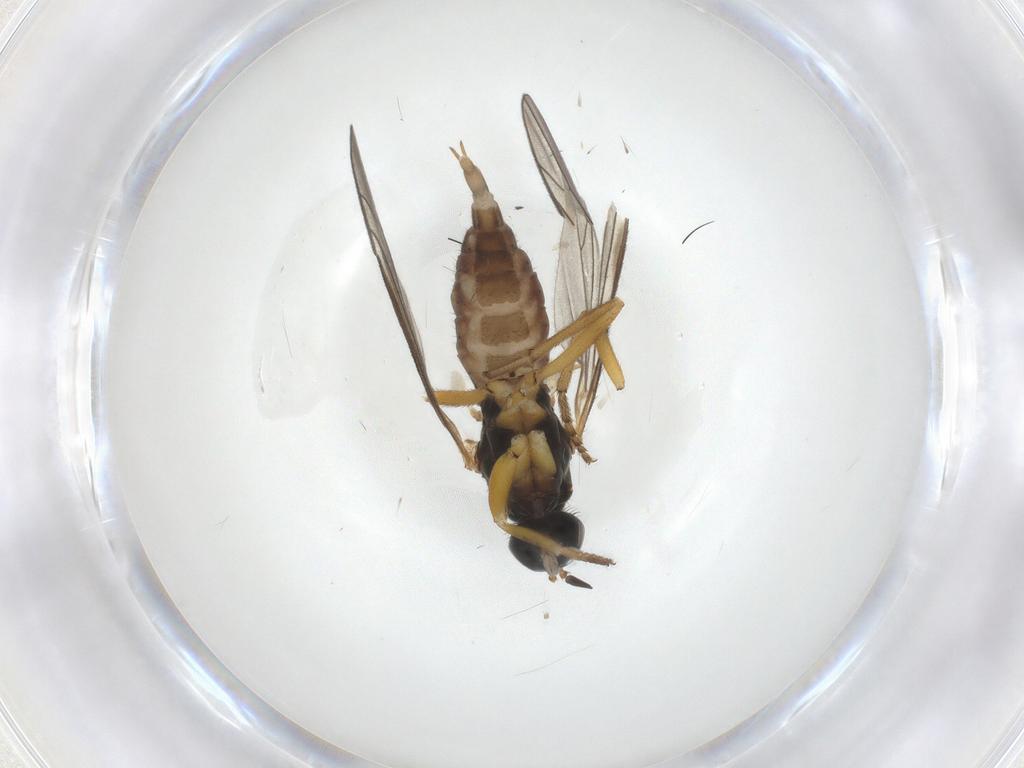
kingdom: Animalia
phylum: Arthropoda
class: Insecta
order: Diptera
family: Empididae
